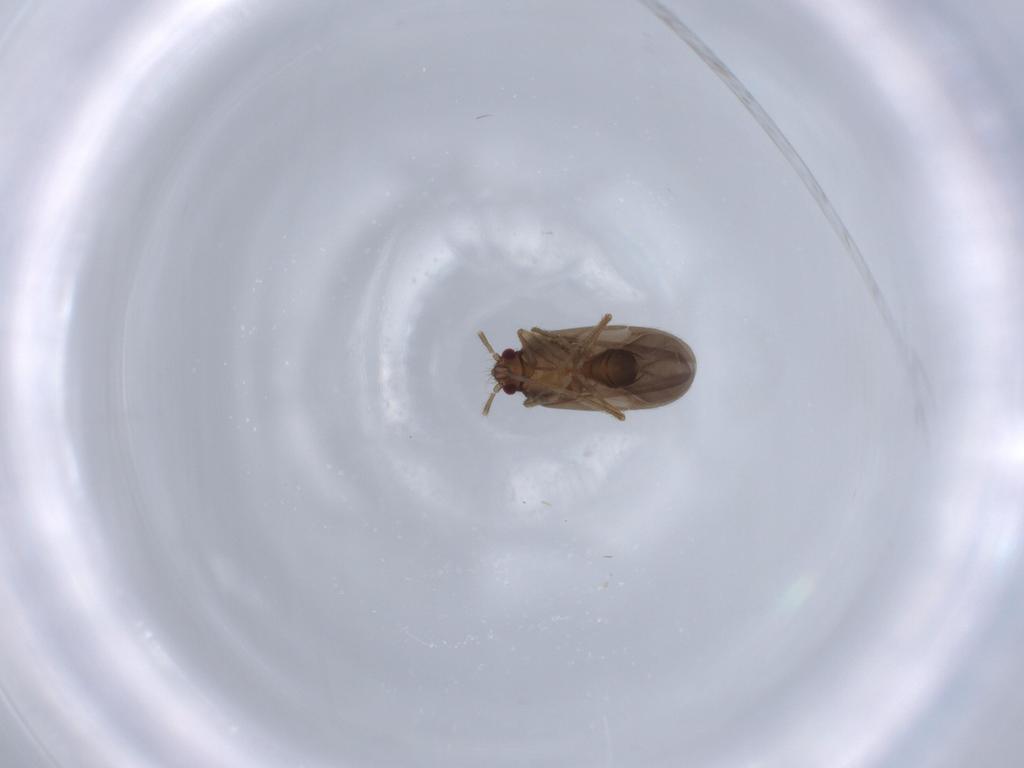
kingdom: Animalia
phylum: Arthropoda
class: Insecta
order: Hemiptera
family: Ceratocombidae
